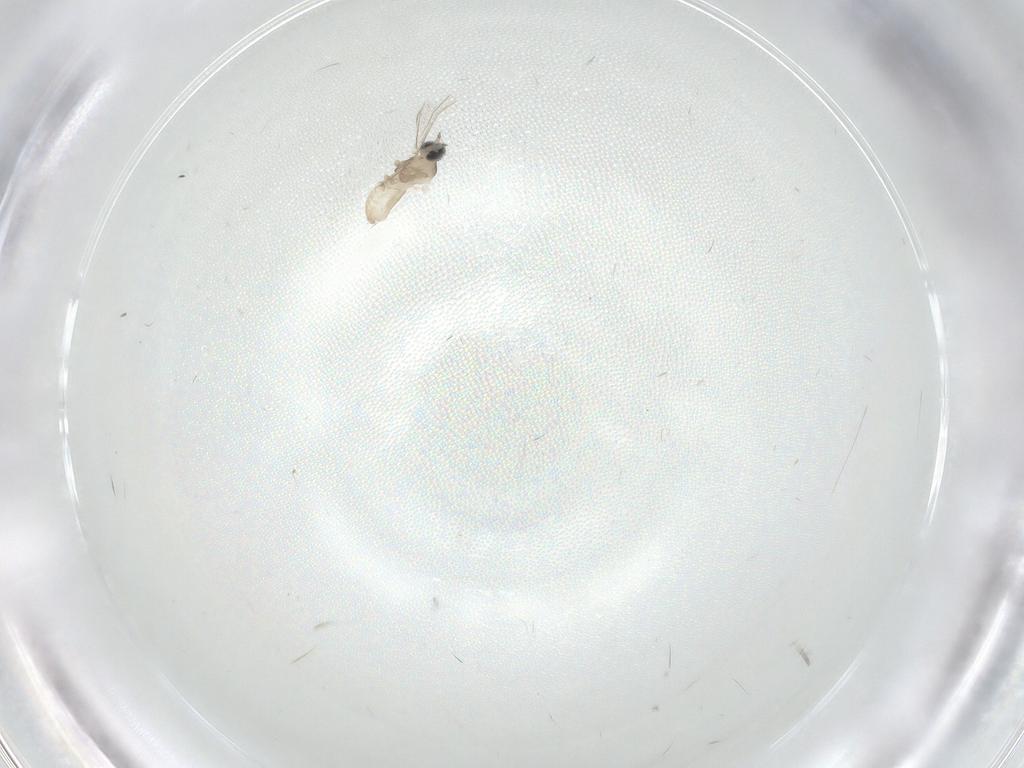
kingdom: Animalia
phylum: Arthropoda
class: Insecta
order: Diptera
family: Cecidomyiidae
